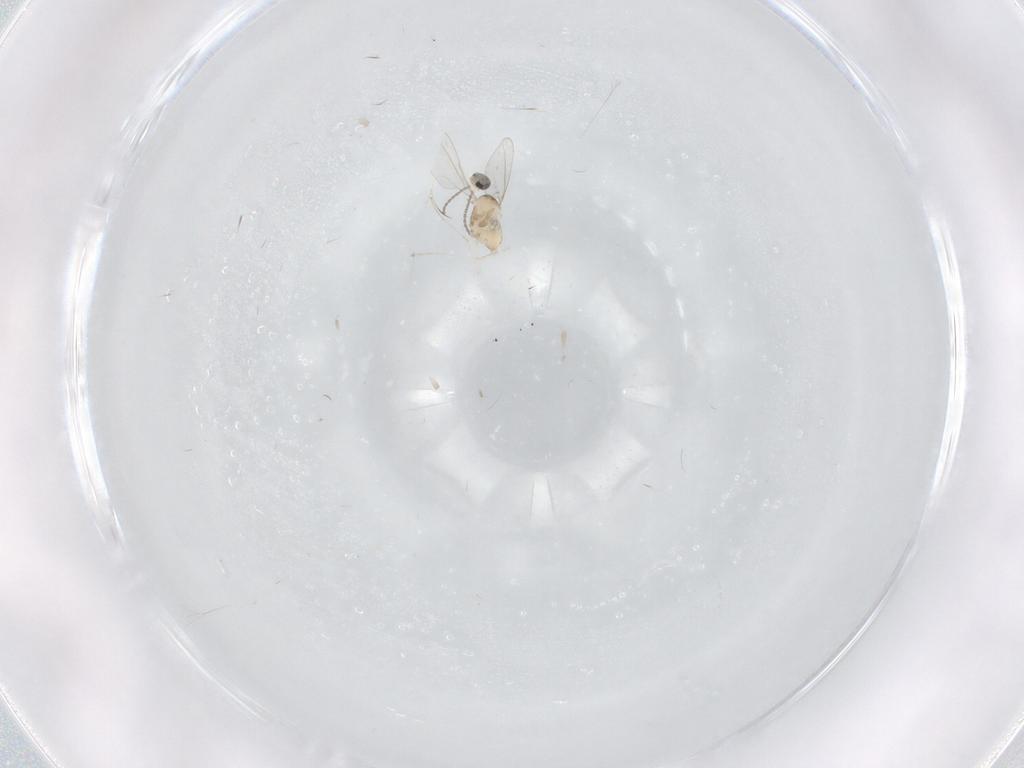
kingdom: Animalia
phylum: Arthropoda
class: Insecta
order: Diptera
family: Cecidomyiidae
